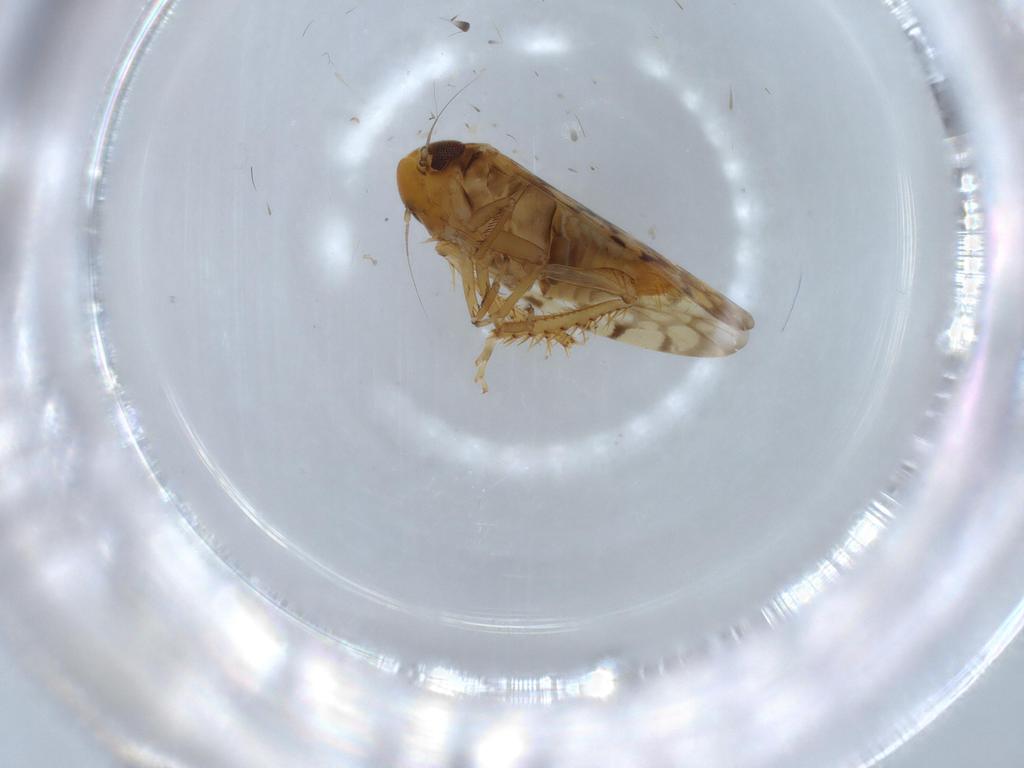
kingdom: Animalia
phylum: Arthropoda
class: Insecta
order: Hemiptera
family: Cicadellidae
